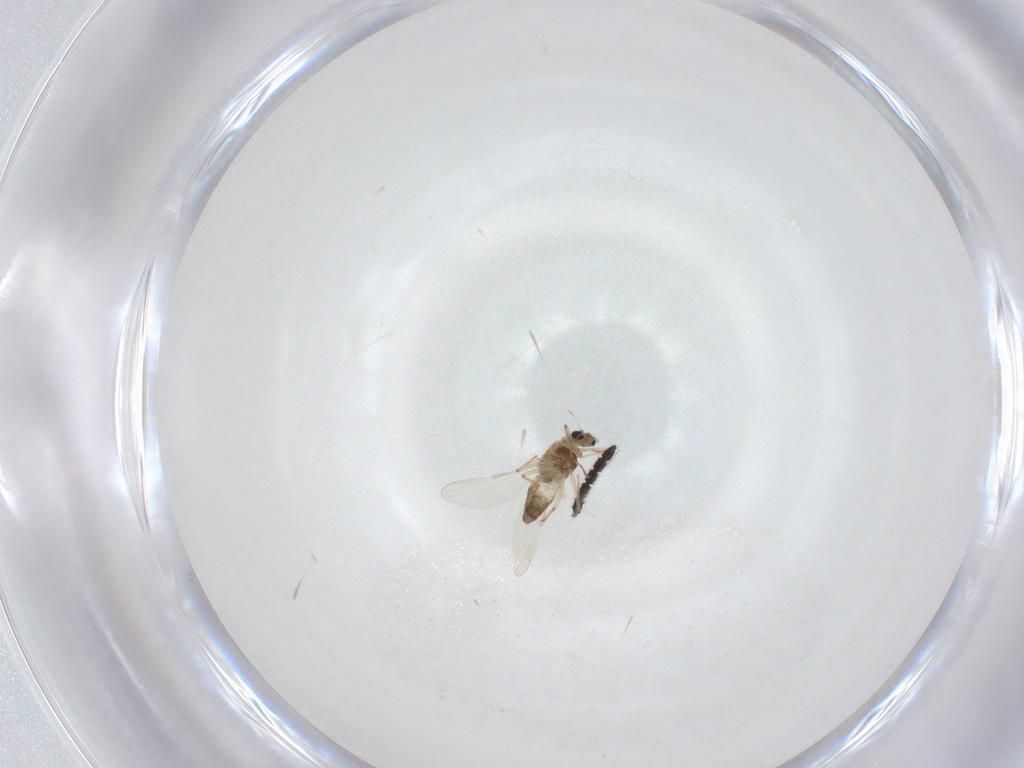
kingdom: Animalia
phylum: Arthropoda
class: Insecta
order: Diptera
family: Chironomidae
